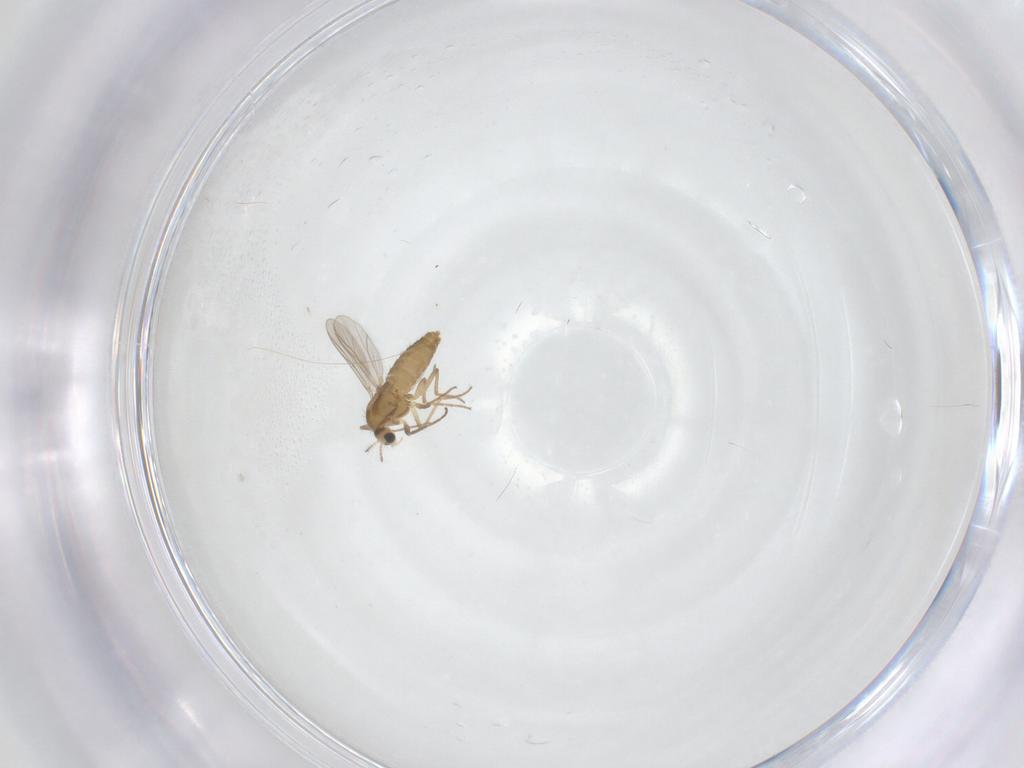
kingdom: Animalia
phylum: Arthropoda
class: Insecta
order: Diptera
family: Chironomidae
